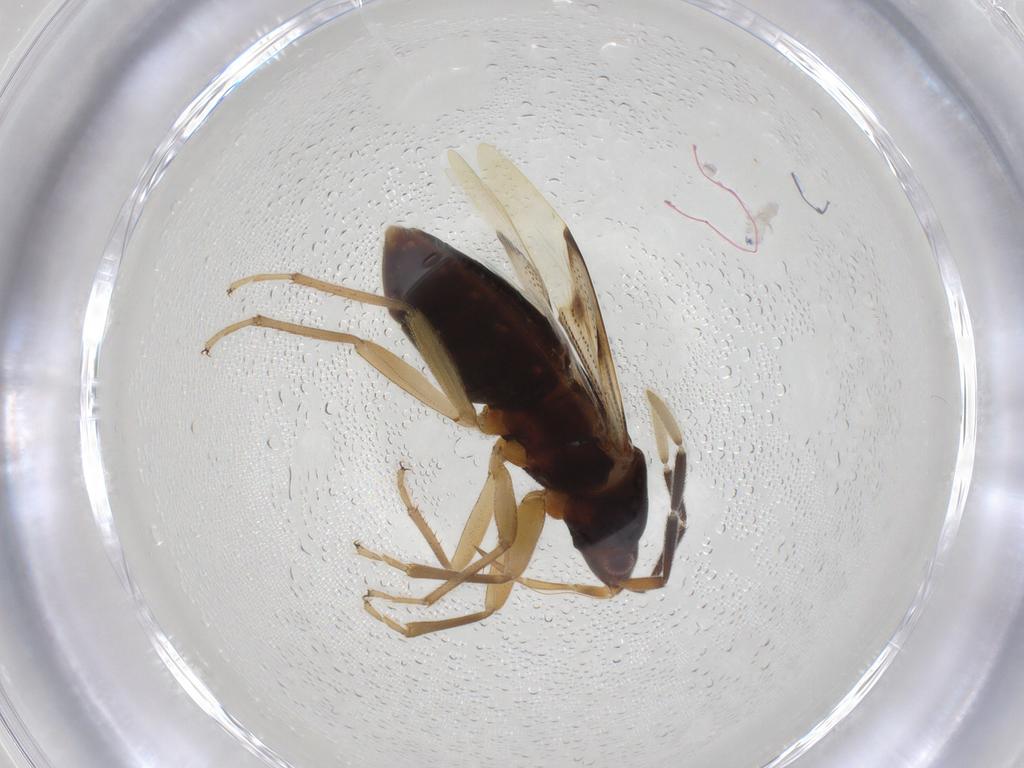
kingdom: Animalia
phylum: Arthropoda
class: Insecta
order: Hemiptera
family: Rhyparochromidae
